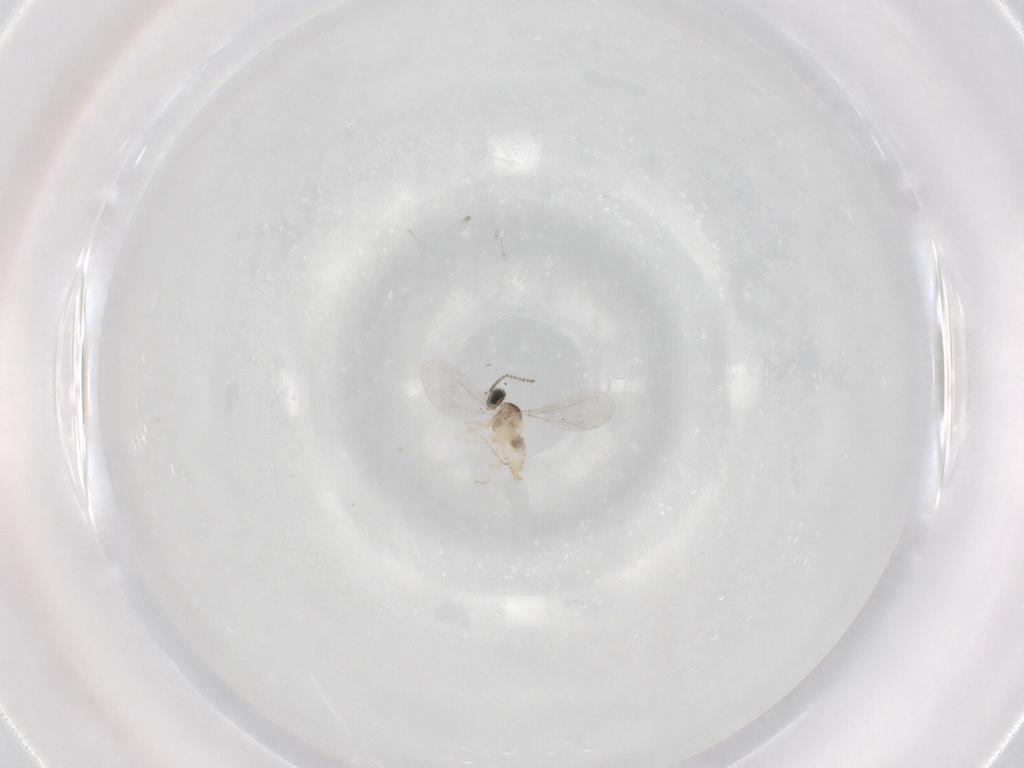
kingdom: Animalia
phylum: Arthropoda
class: Insecta
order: Diptera
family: Cecidomyiidae
